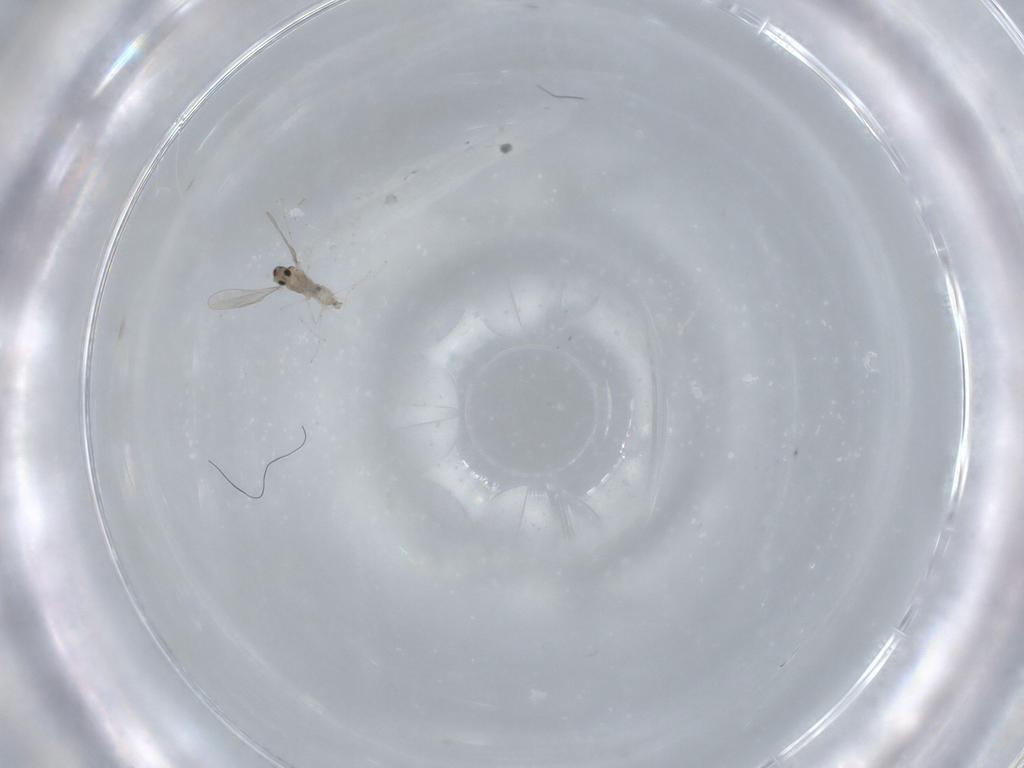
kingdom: Animalia
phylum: Arthropoda
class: Insecta
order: Diptera
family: Cecidomyiidae
